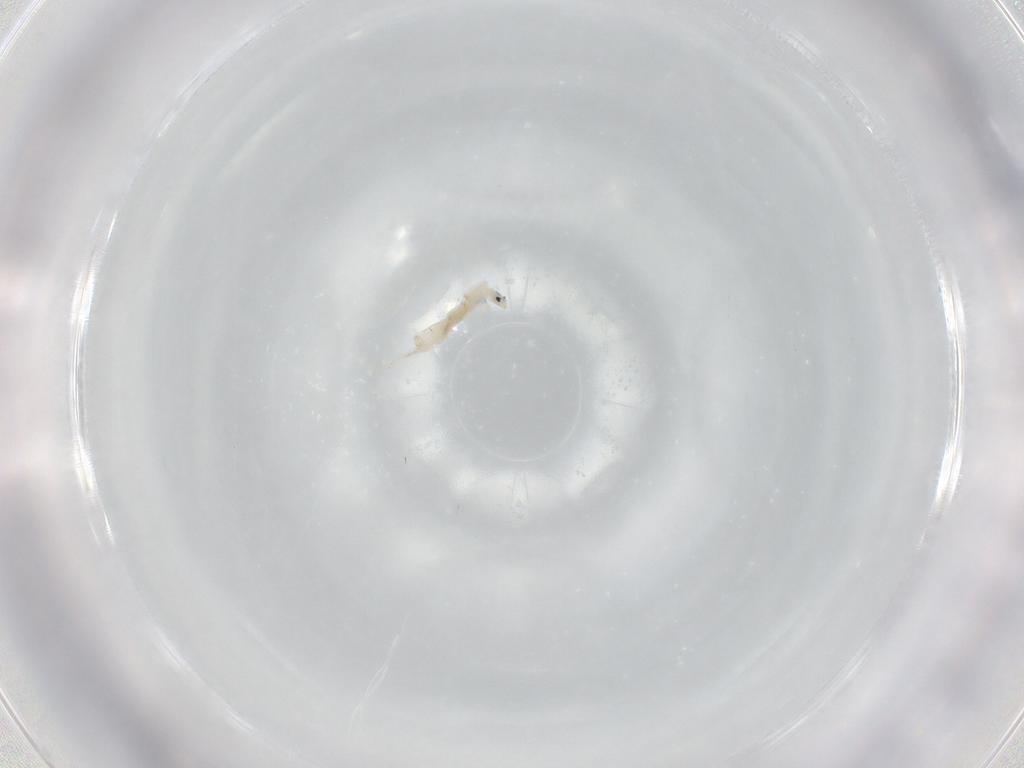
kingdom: Animalia
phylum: Arthropoda
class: Collembola
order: Entomobryomorpha
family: Entomobryidae
